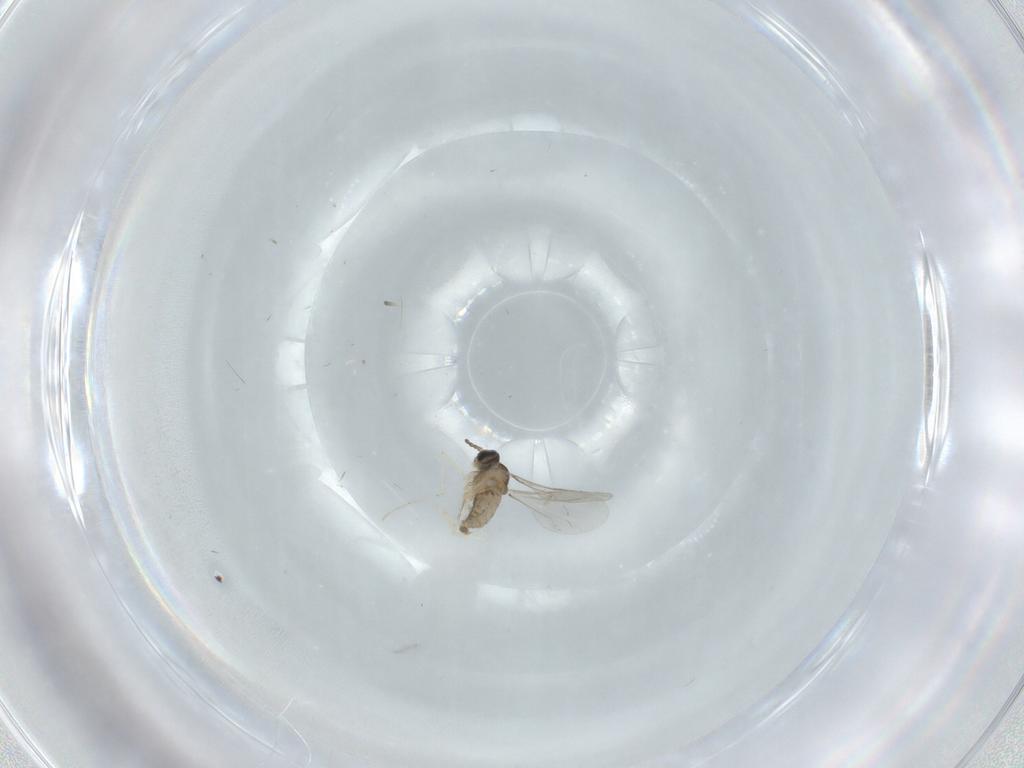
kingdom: Animalia
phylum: Arthropoda
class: Insecta
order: Diptera
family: Cecidomyiidae
